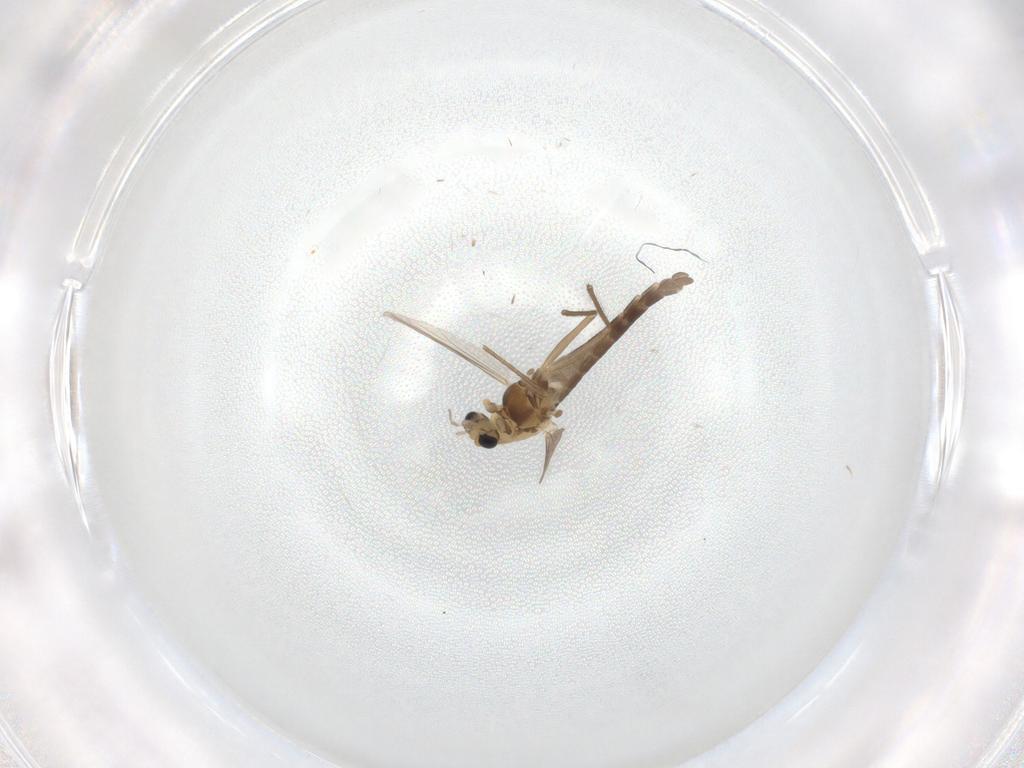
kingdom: Animalia
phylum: Arthropoda
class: Insecta
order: Diptera
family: Chironomidae
